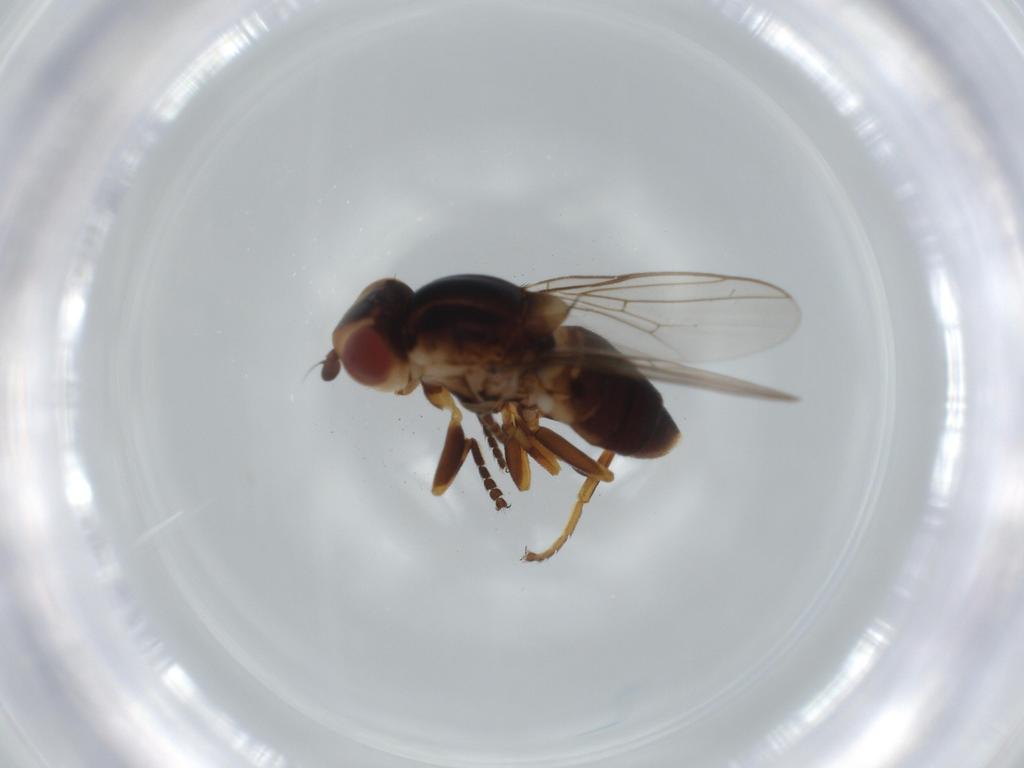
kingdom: Animalia
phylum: Arthropoda
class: Insecta
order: Diptera
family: Chloropidae
